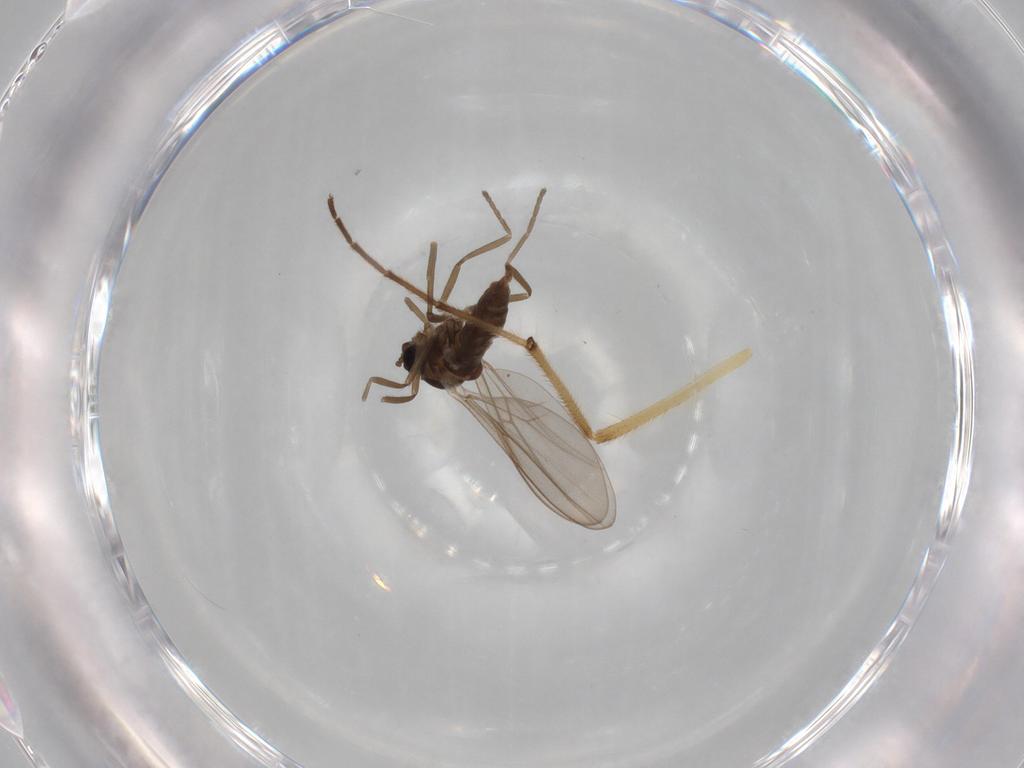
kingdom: Animalia
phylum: Arthropoda
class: Insecta
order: Diptera
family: Cecidomyiidae
